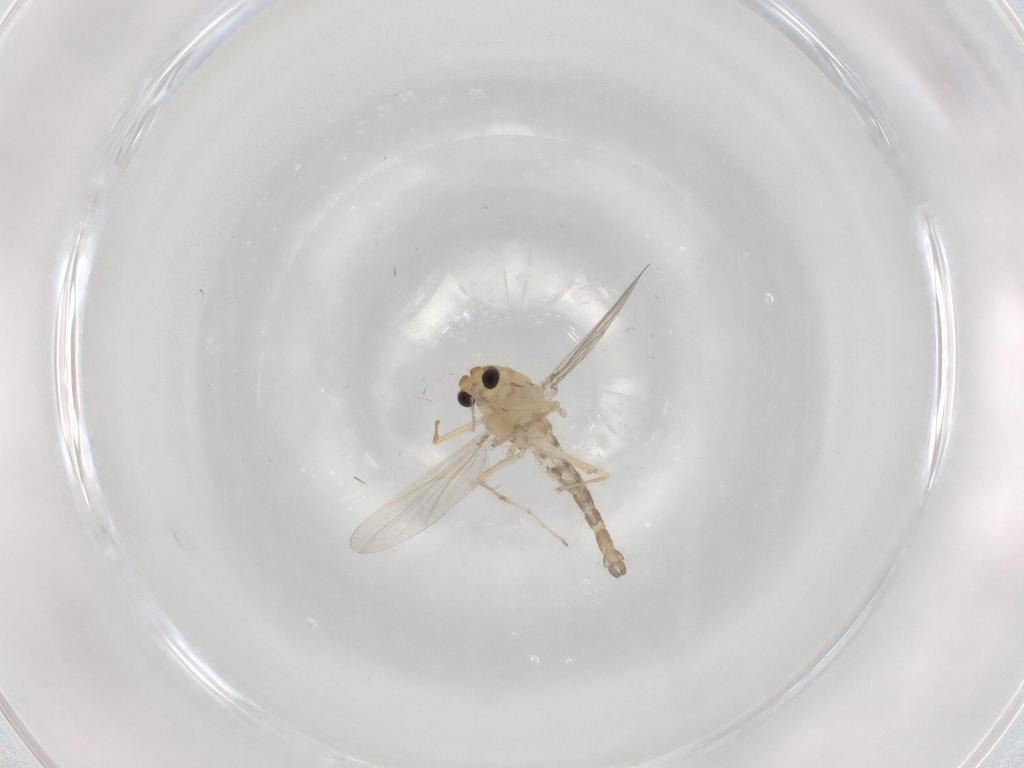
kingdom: Animalia
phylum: Arthropoda
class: Insecta
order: Diptera
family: Chironomidae
